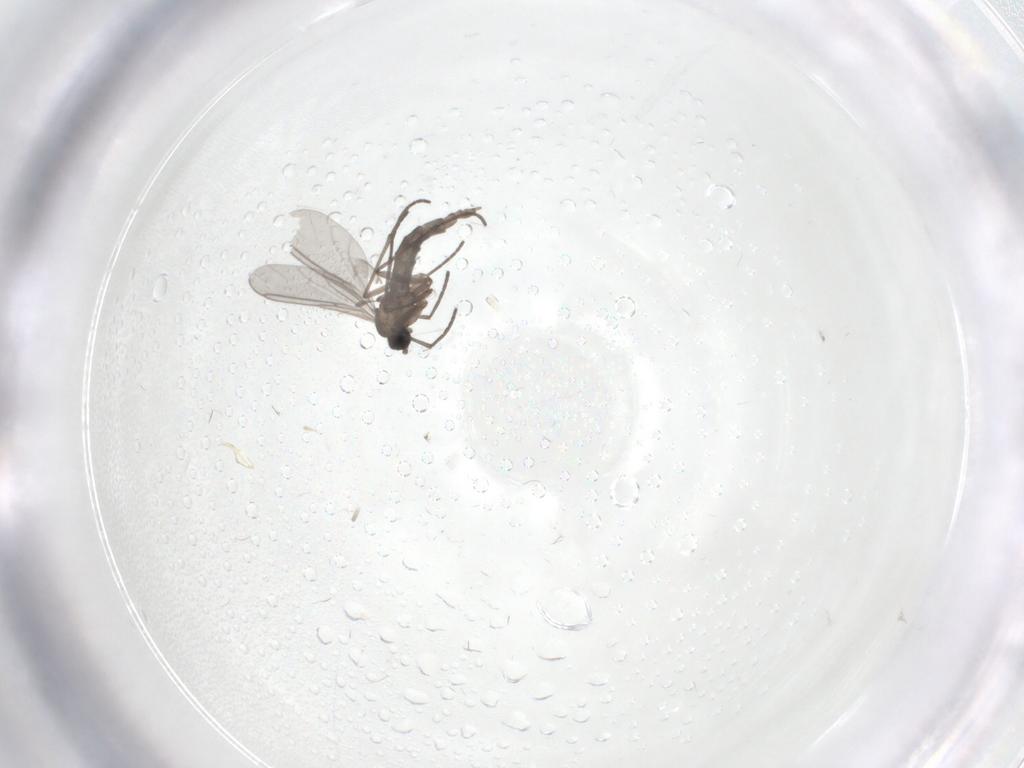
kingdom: Animalia
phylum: Arthropoda
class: Insecta
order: Diptera
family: Sciaridae
